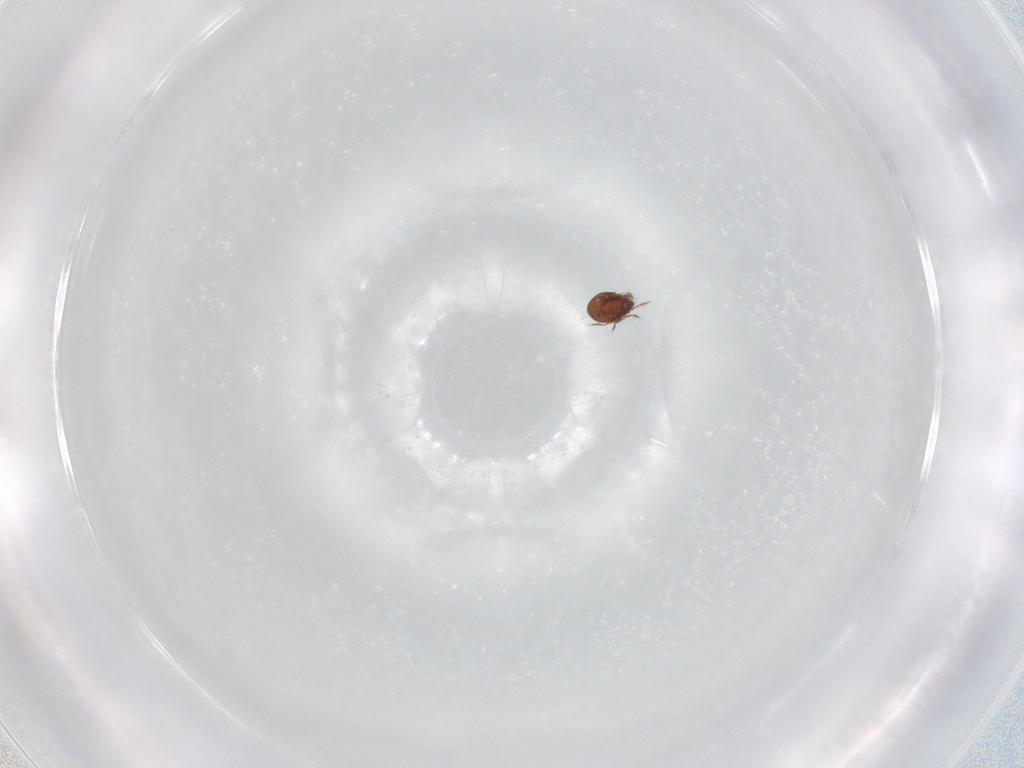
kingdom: Animalia
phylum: Arthropoda
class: Arachnida
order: Sarcoptiformes
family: Ceratozetidae
